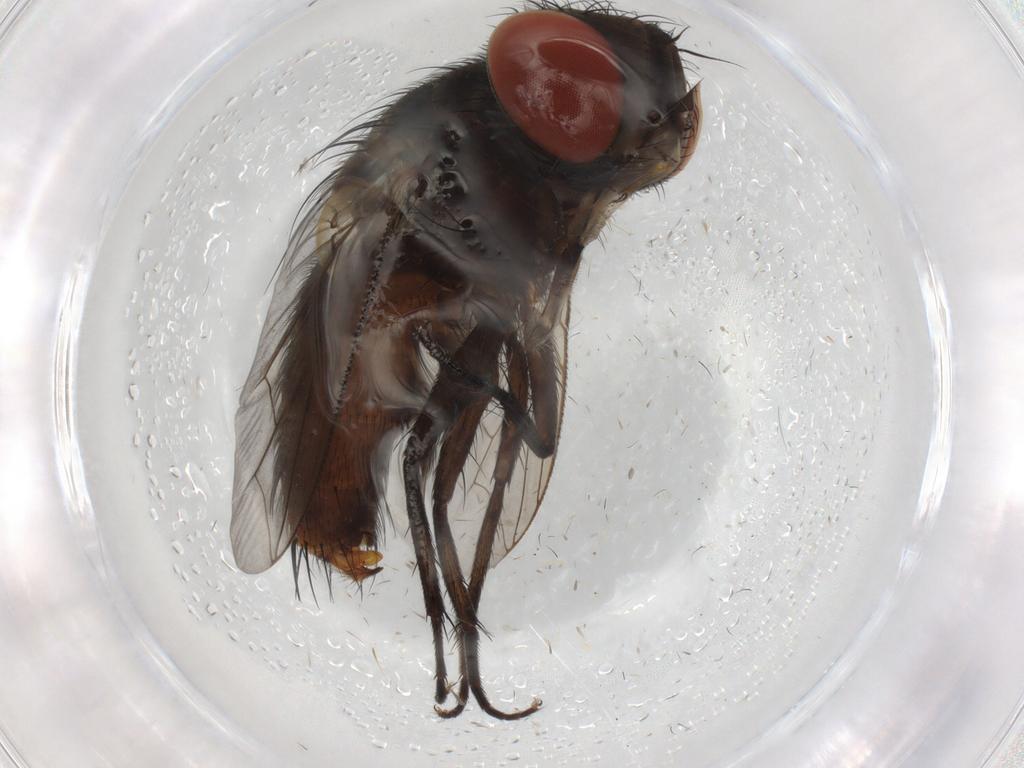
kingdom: Animalia
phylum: Arthropoda
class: Insecta
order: Diptera
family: Sarcophagidae
